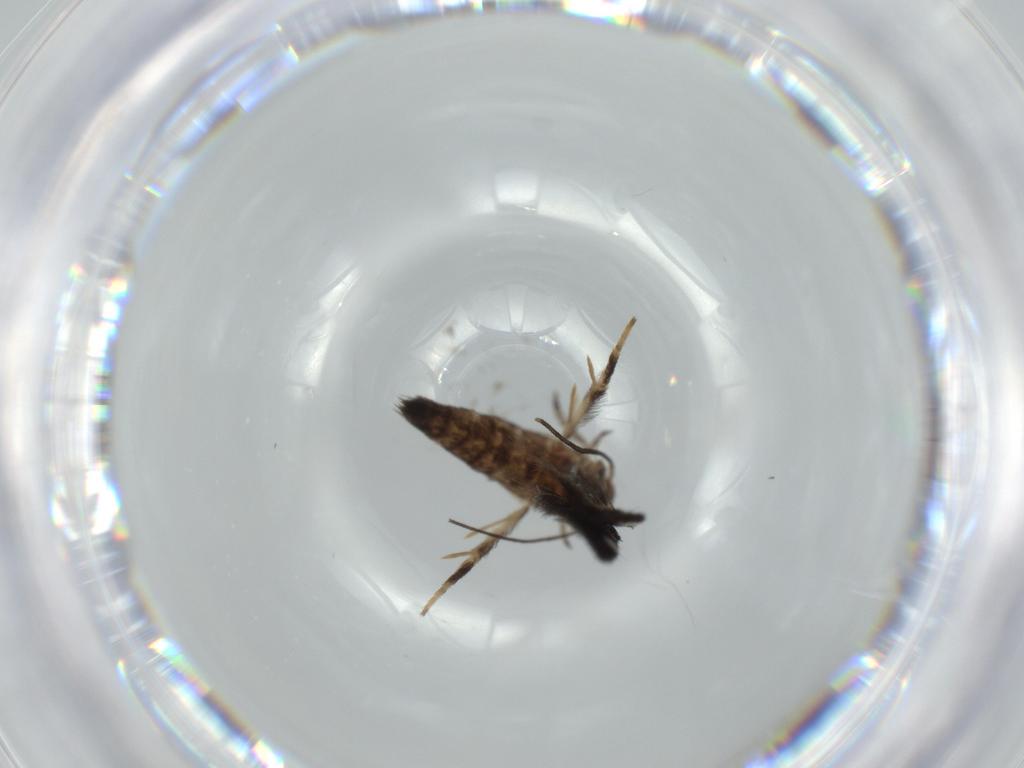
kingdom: Animalia
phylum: Arthropoda
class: Insecta
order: Lepidoptera
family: Cosmopterigidae
